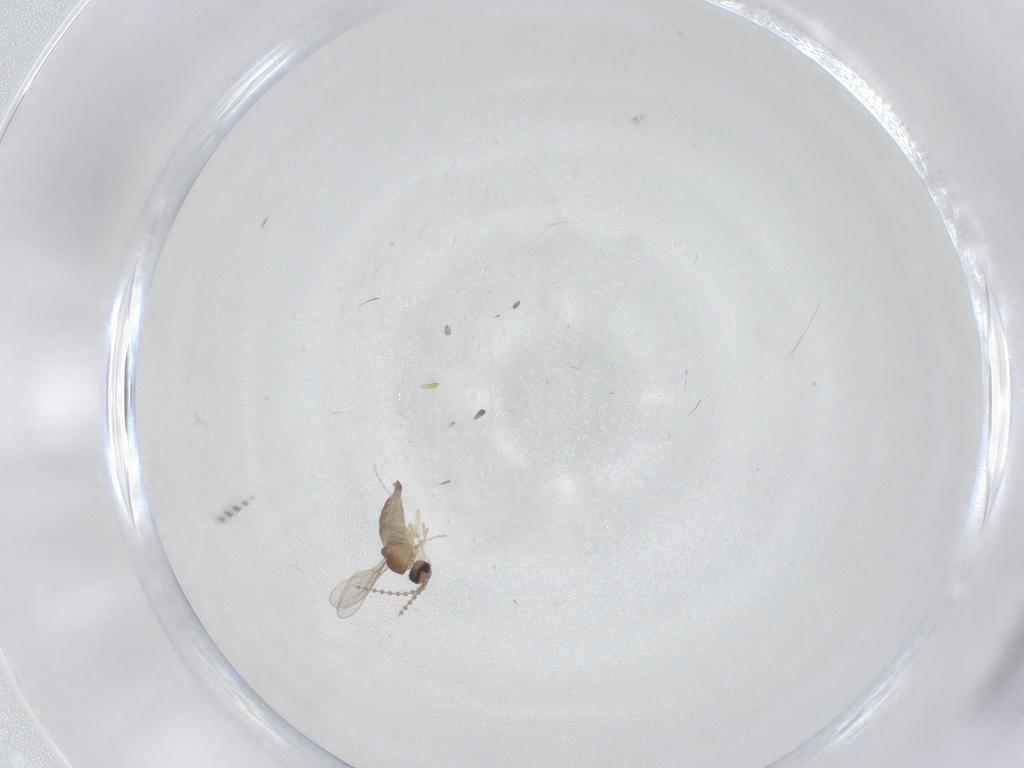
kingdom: Animalia
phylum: Arthropoda
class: Insecta
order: Diptera
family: Cecidomyiidae
